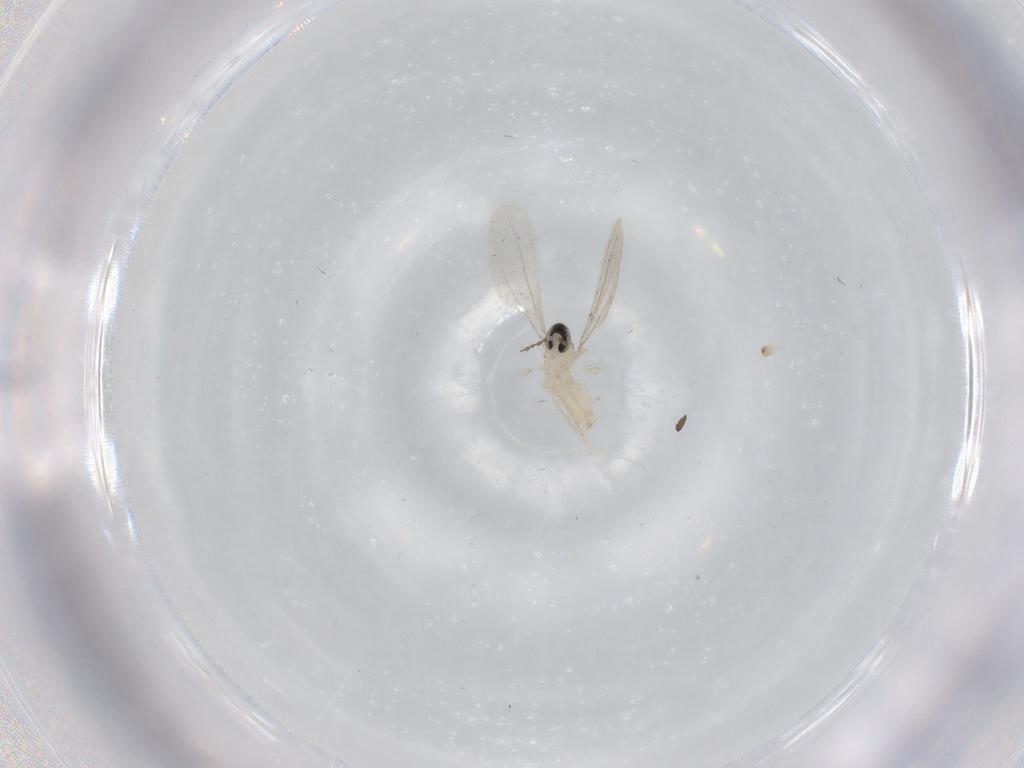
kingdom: Animalia
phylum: Arthropoda
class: Insecta
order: Diptera
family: Cecidomyiidae
